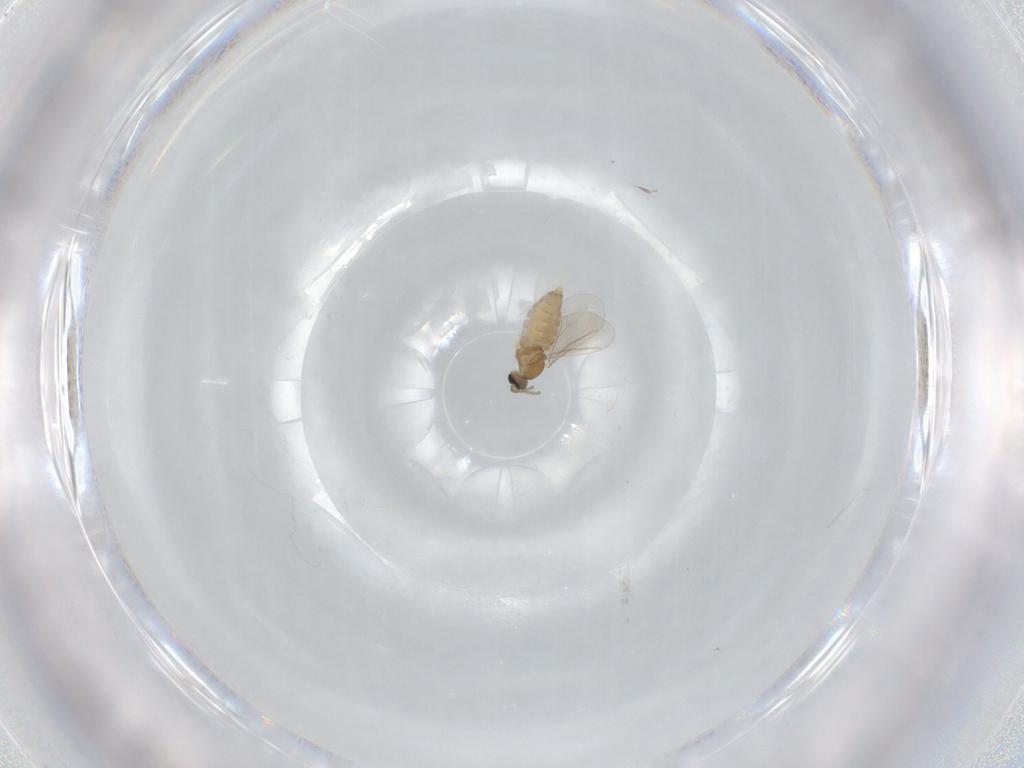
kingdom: Animalia
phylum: Arthropoda
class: Insecta
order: Diptera
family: Cecidomyiidae
